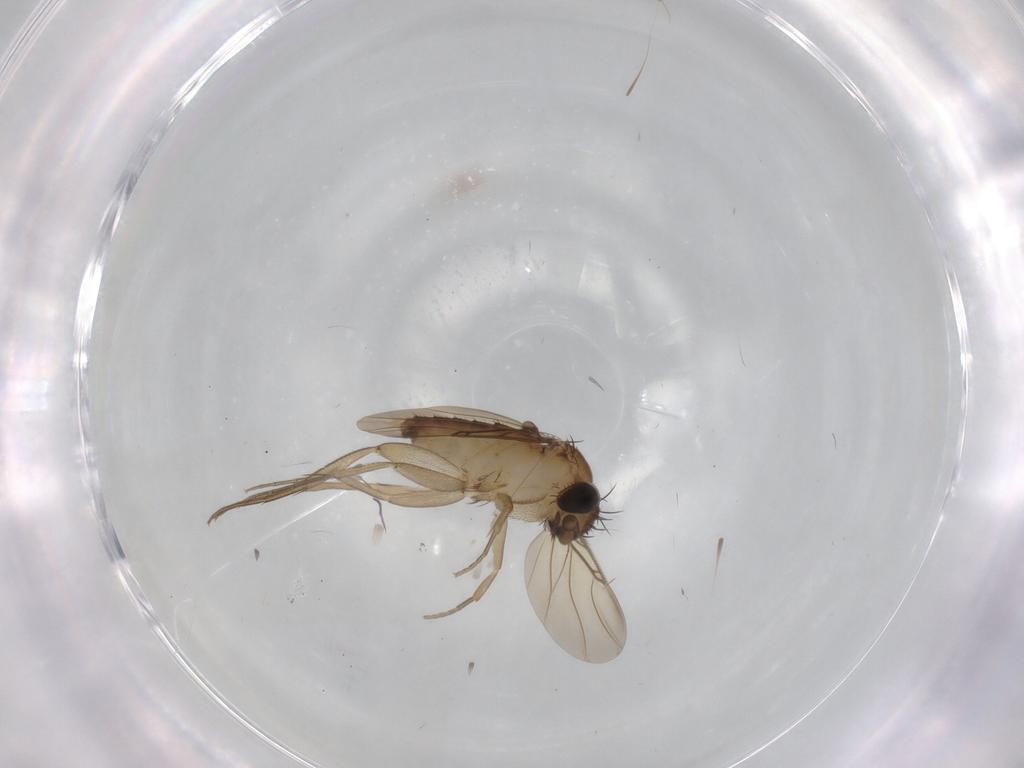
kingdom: Animalia
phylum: Arthropoda
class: Insecta
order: Diptera
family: Phoridae
